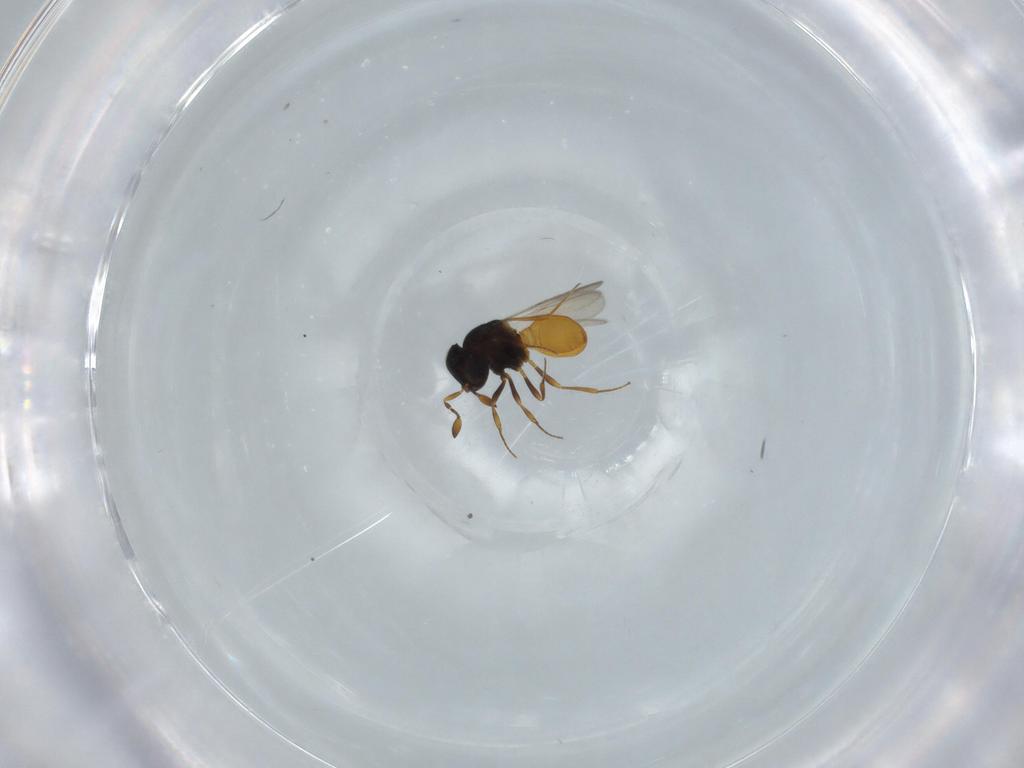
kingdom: Animalia
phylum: Arthropoda
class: Insecta
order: Hymenoptera
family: Scelionidae
